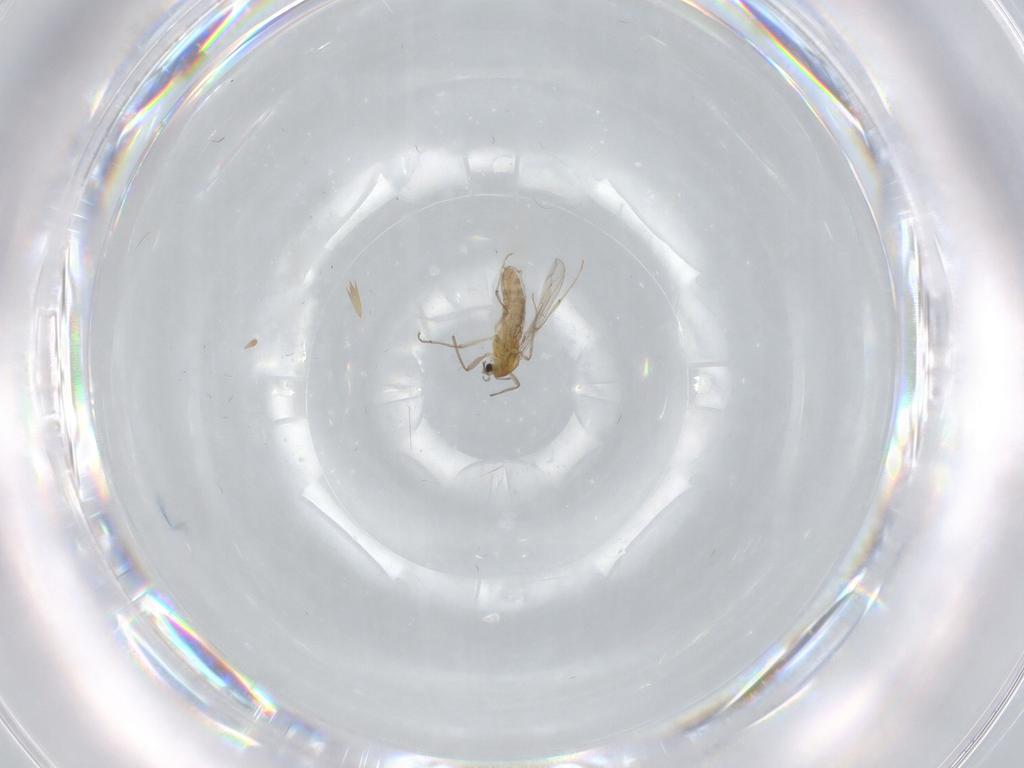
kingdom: Animalia
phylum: Arthropoda
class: Insecta
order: Diptera
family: Chironomidae
